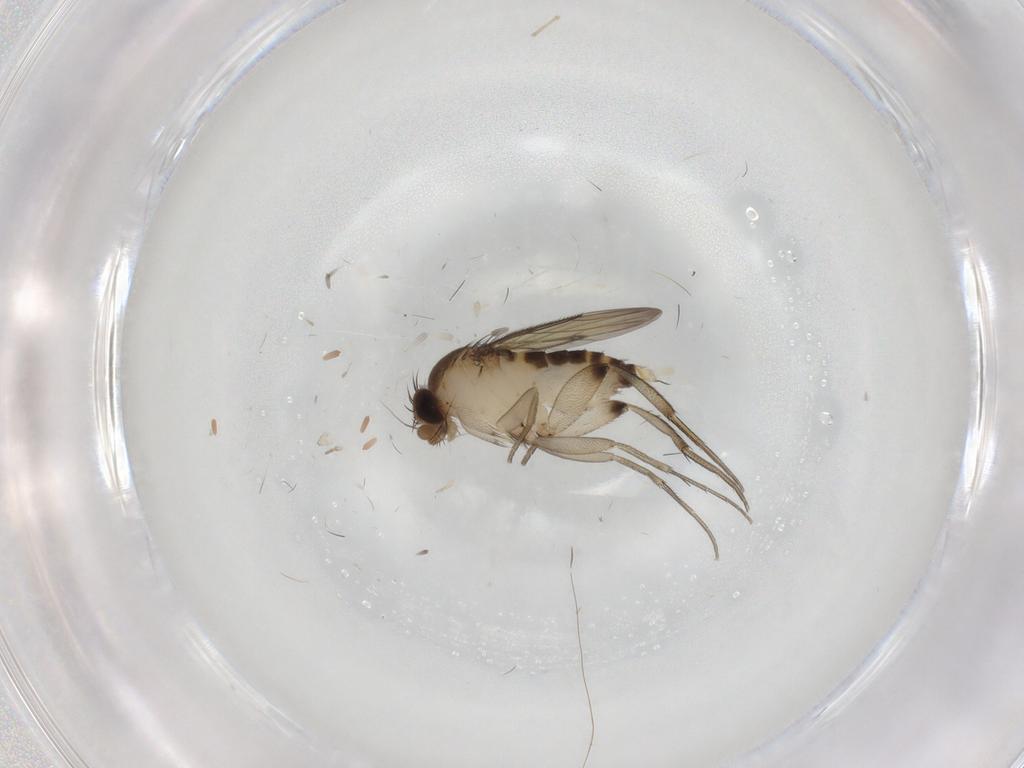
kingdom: Animalia
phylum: Arthropoda
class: Insecta
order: Diptera
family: Phoridae
